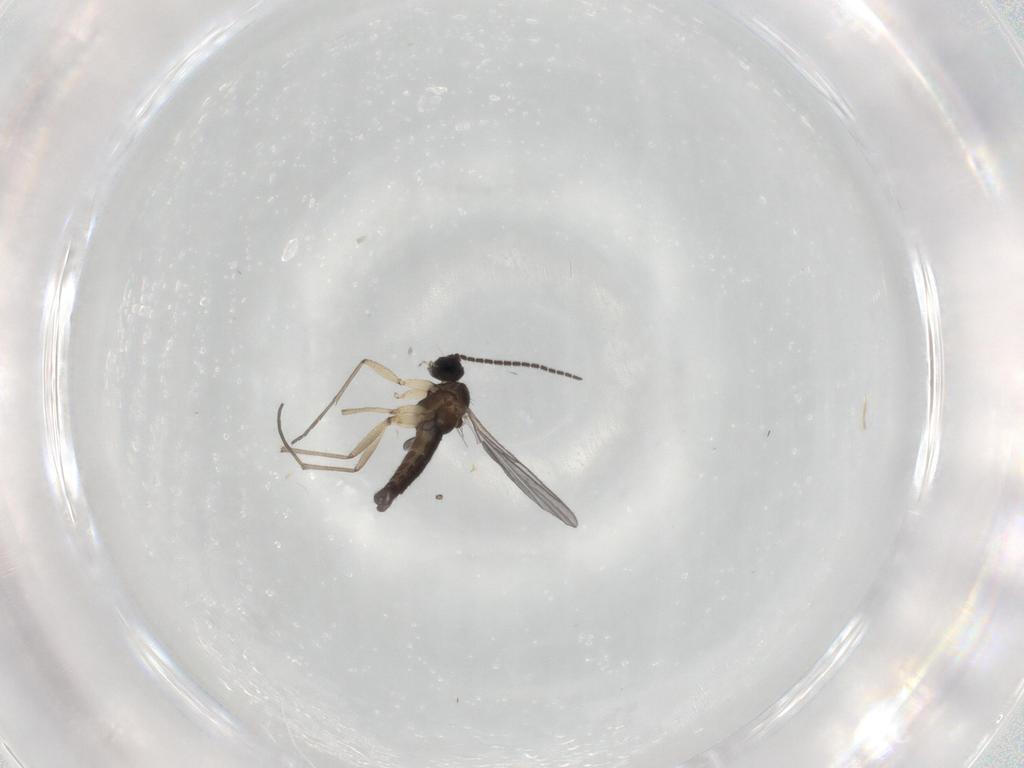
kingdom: Animalia
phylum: Arthropoda
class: Insecta
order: Diptera
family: Sciaridae
